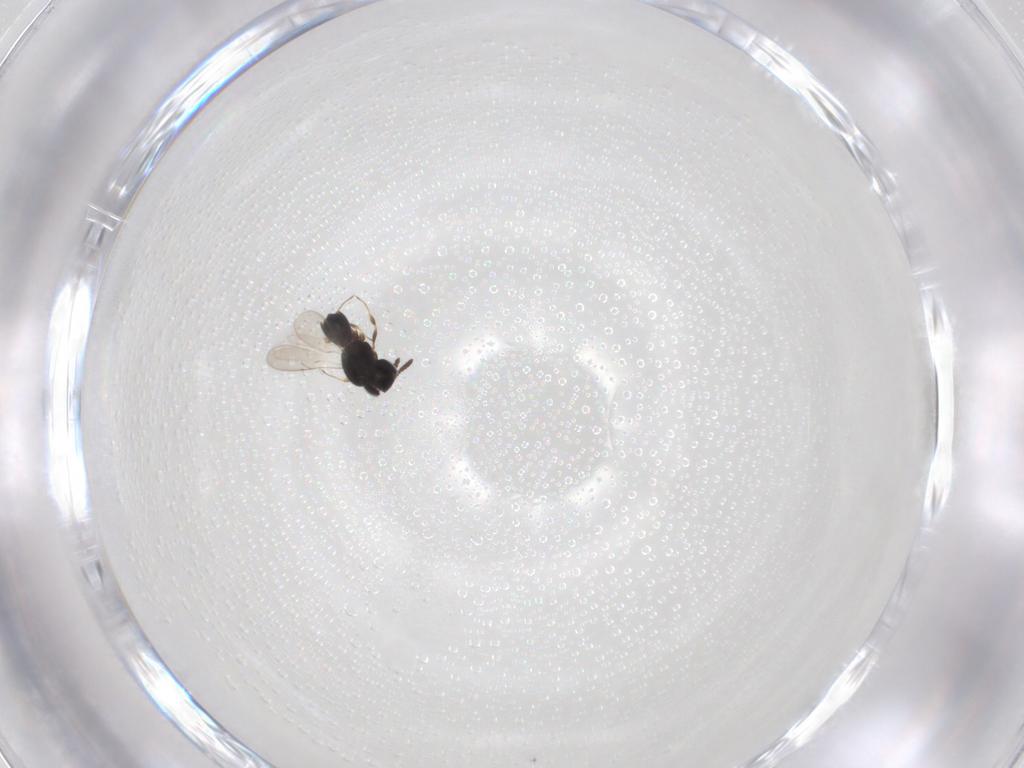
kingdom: Animalia
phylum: Arthropoda
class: Insecta
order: Hymenoptera
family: Scelionidae
